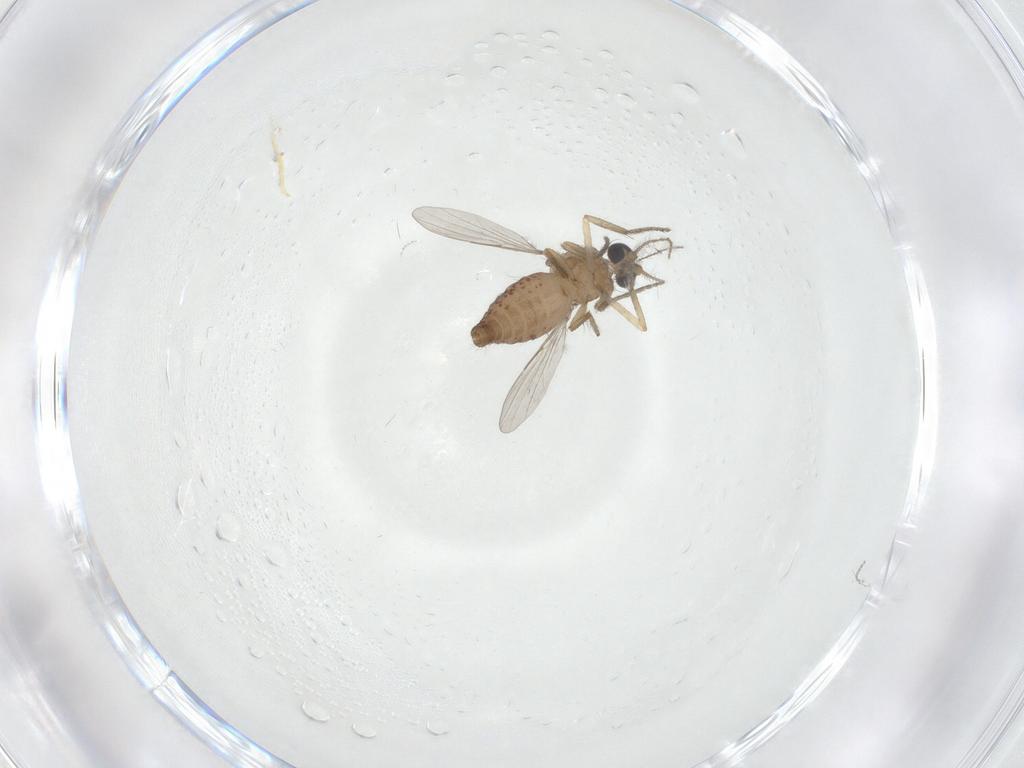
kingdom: Animalia
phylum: Arthropoda
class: Insecta
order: Diptera
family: Ceratopogonidae
